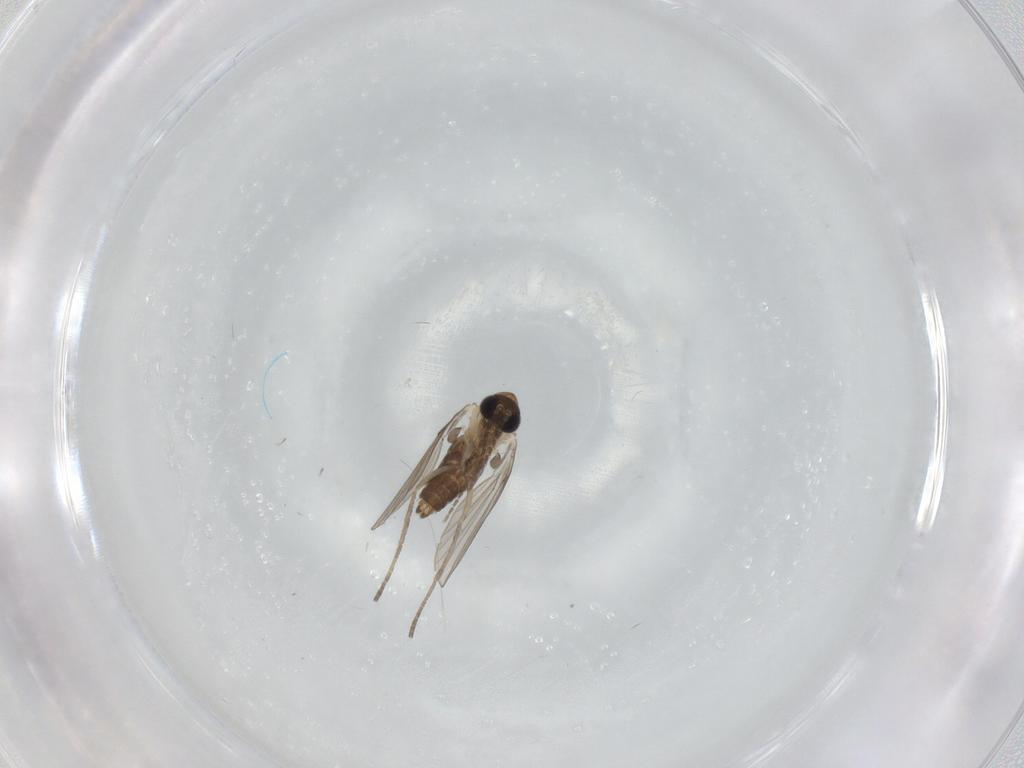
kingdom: Animalia
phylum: Arthropoda
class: Insecta
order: Diptera
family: Psychodidae
